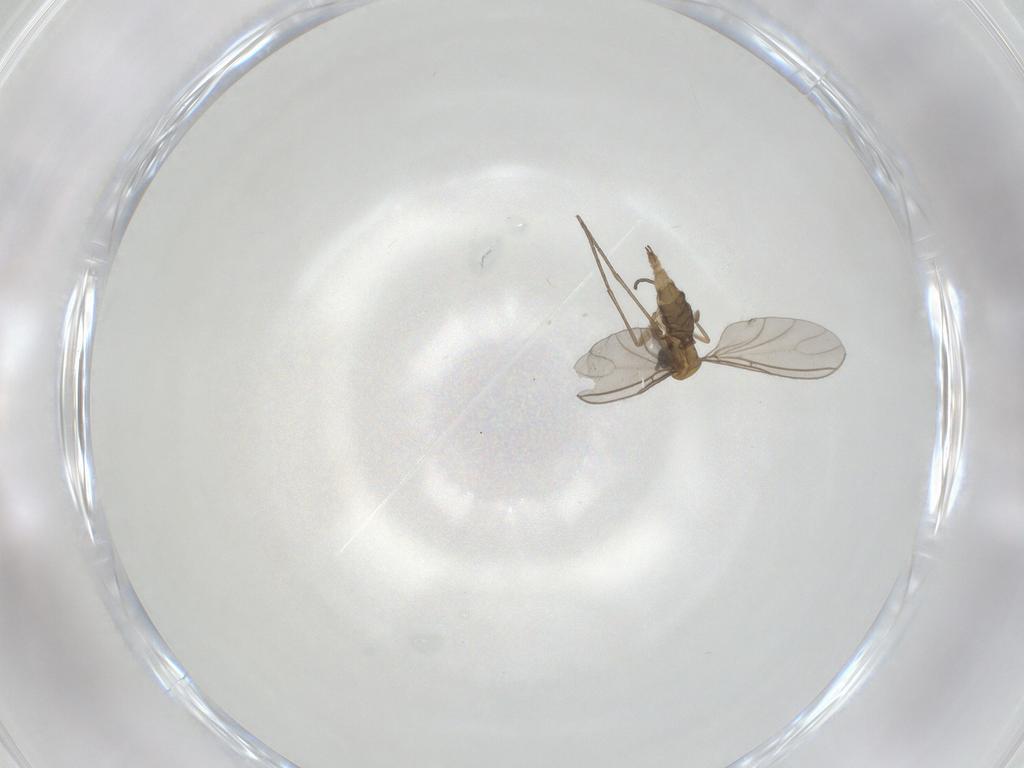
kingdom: Animalia
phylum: Arthropoda
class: Insecta
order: Diptera
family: Sciaridae
